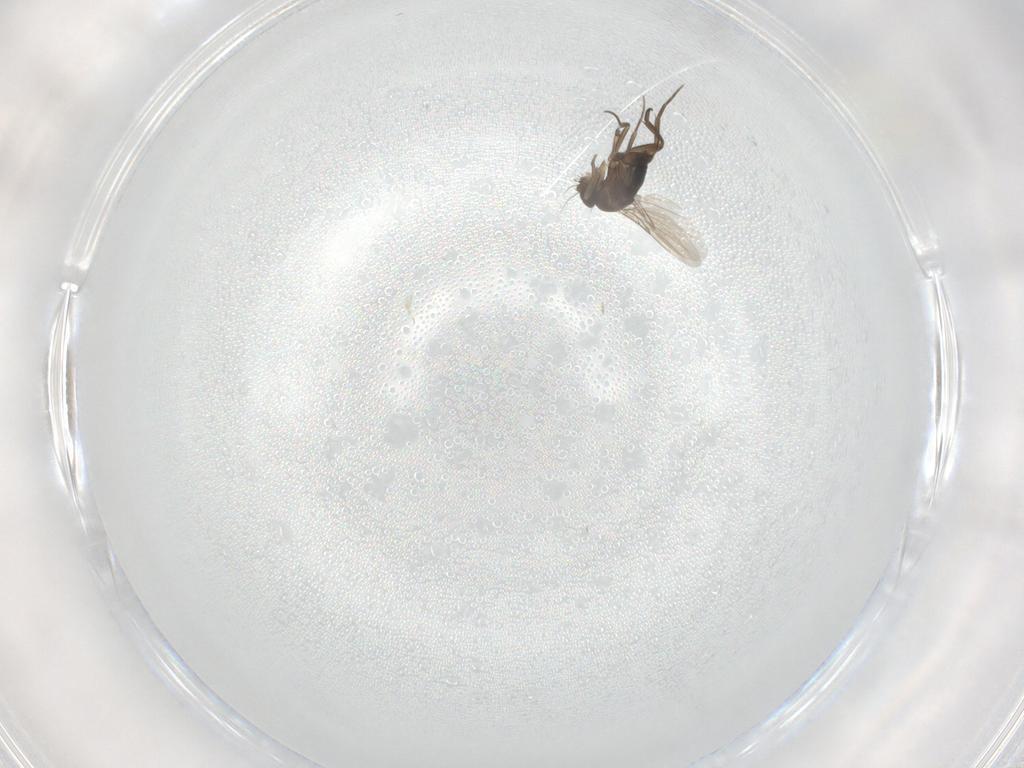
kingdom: Animalia
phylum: Arthropoda
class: Insecta
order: Diptera
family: Phoridae
